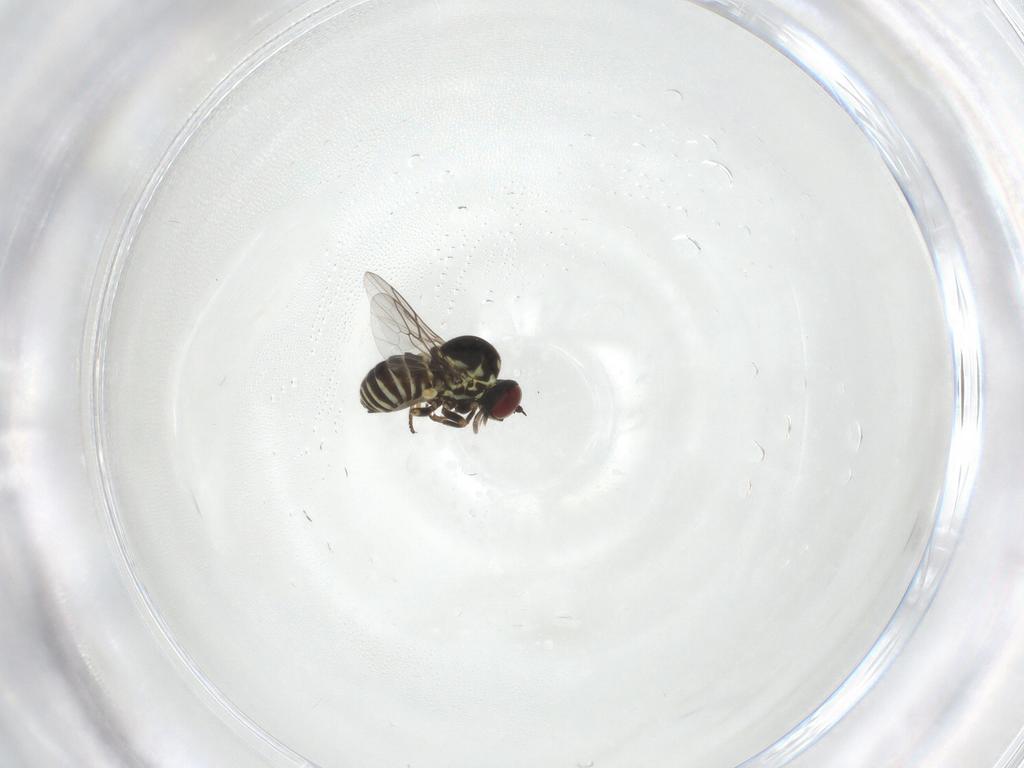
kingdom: Animalia
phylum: Arthropoda
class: Insecta
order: Diptera
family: Mythicomyiidae
